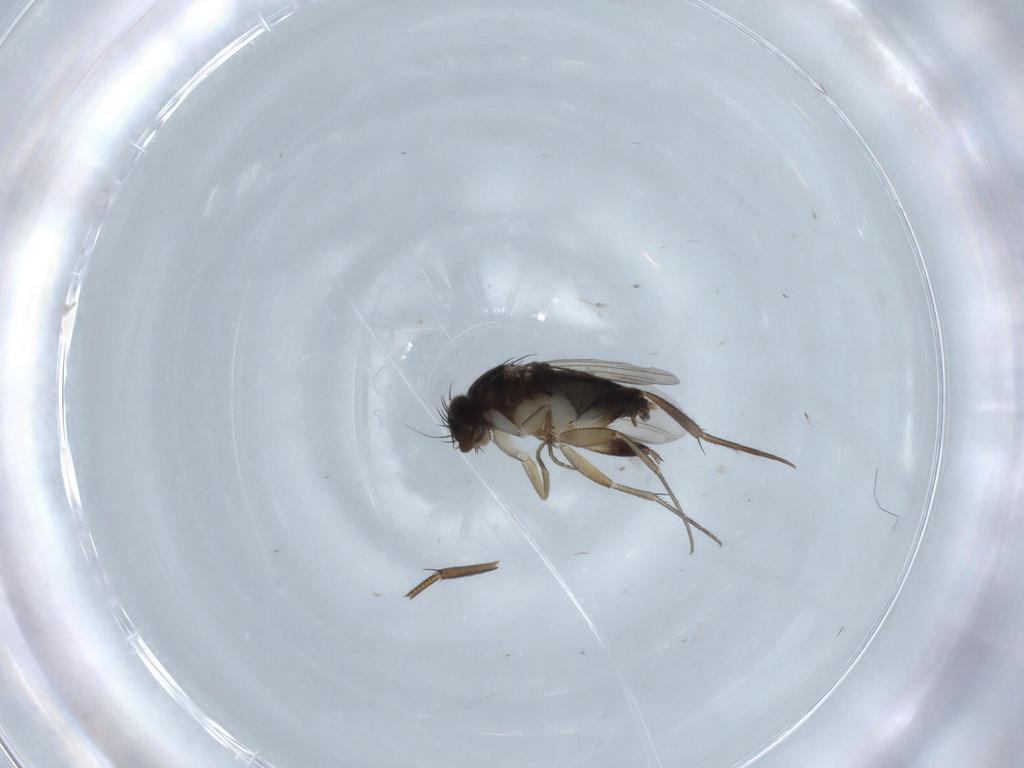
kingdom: Animalia
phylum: Arthropoda
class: Insecta
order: Diptera
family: Phoridae
